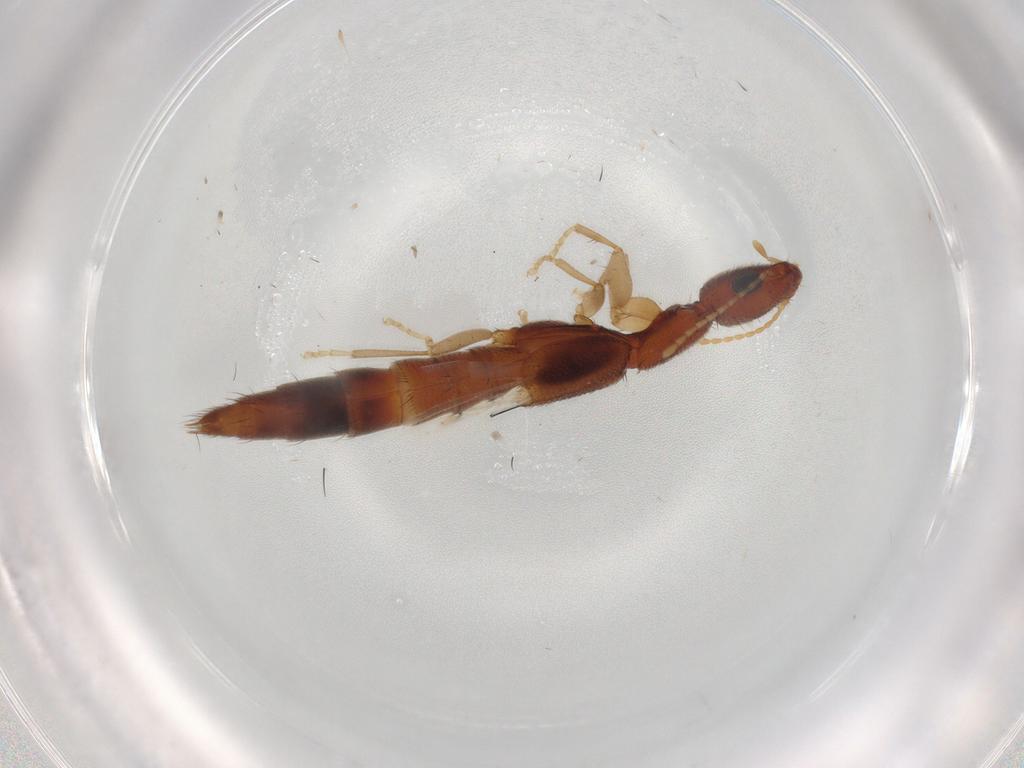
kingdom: Animalia
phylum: Arthropoda
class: Insecta
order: Coleoptera
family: Staphylinidae
